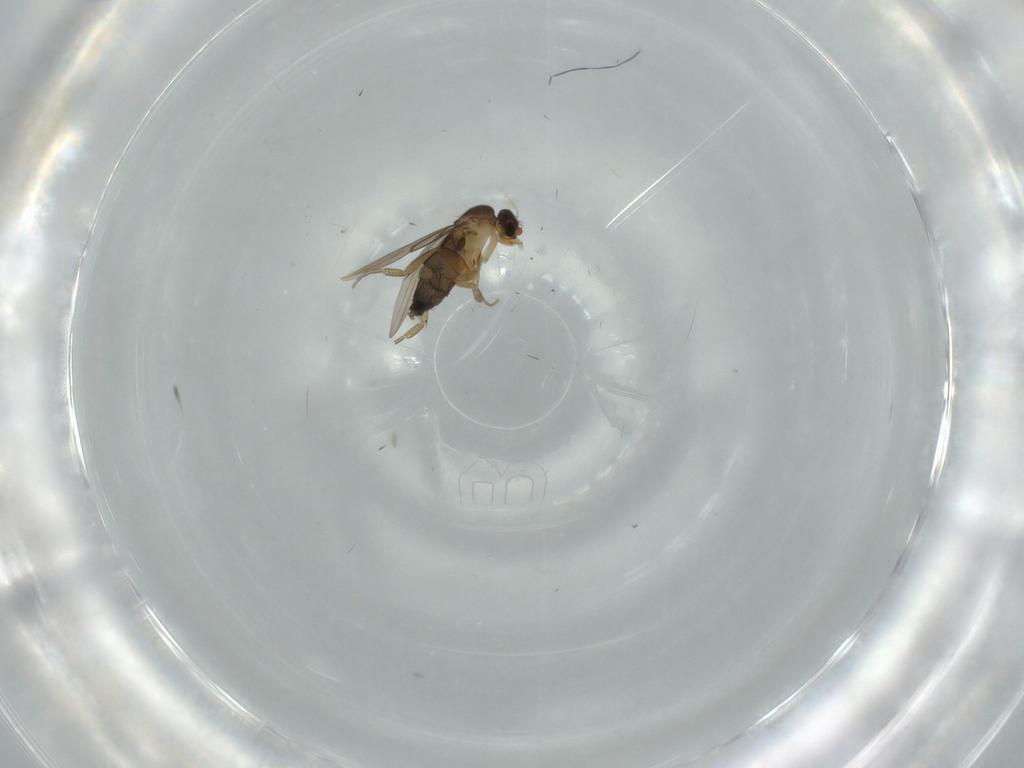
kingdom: Animalia
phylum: Arthropoda
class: Insecta
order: Diptera
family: Phoridae
